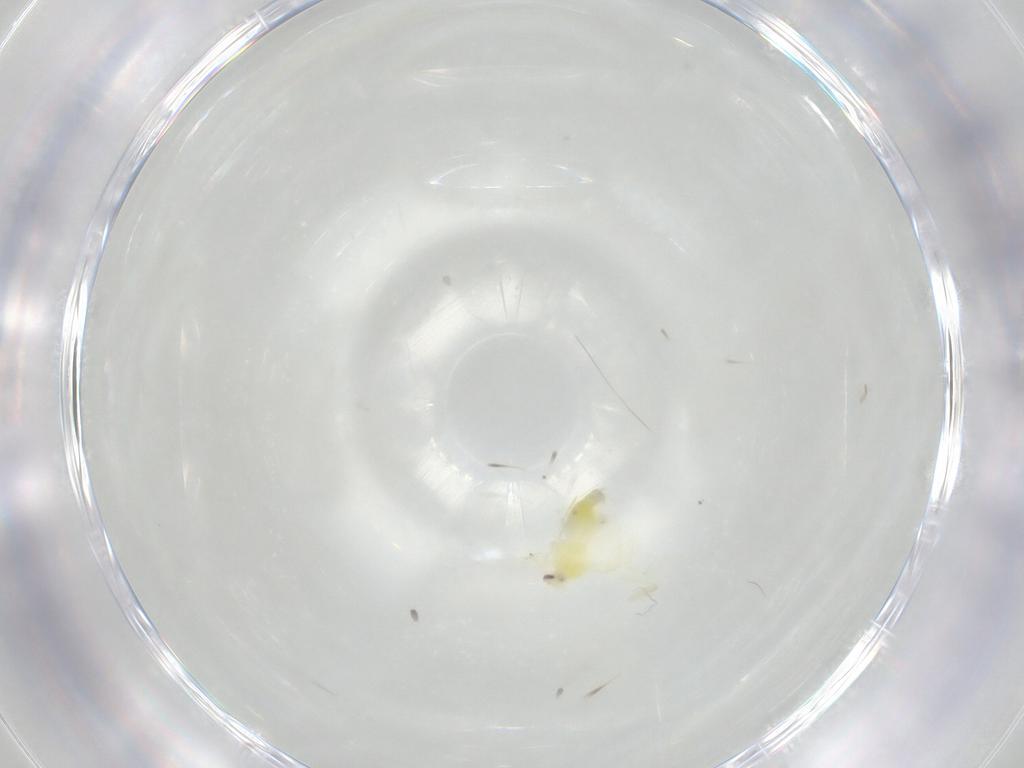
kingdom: Animalia
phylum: Arthropoda
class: Insecta
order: Hemiptera
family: Aleyrodidae
